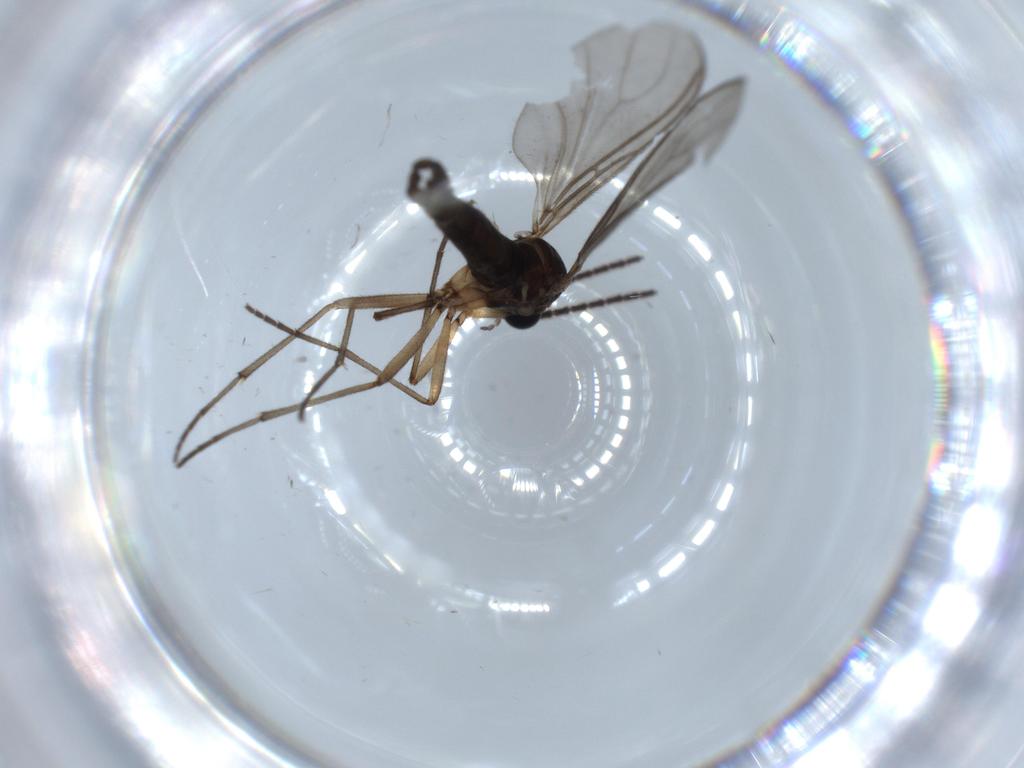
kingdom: Animalia
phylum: Arthropoda
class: Insecta
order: Diptera
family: Sciaridae
